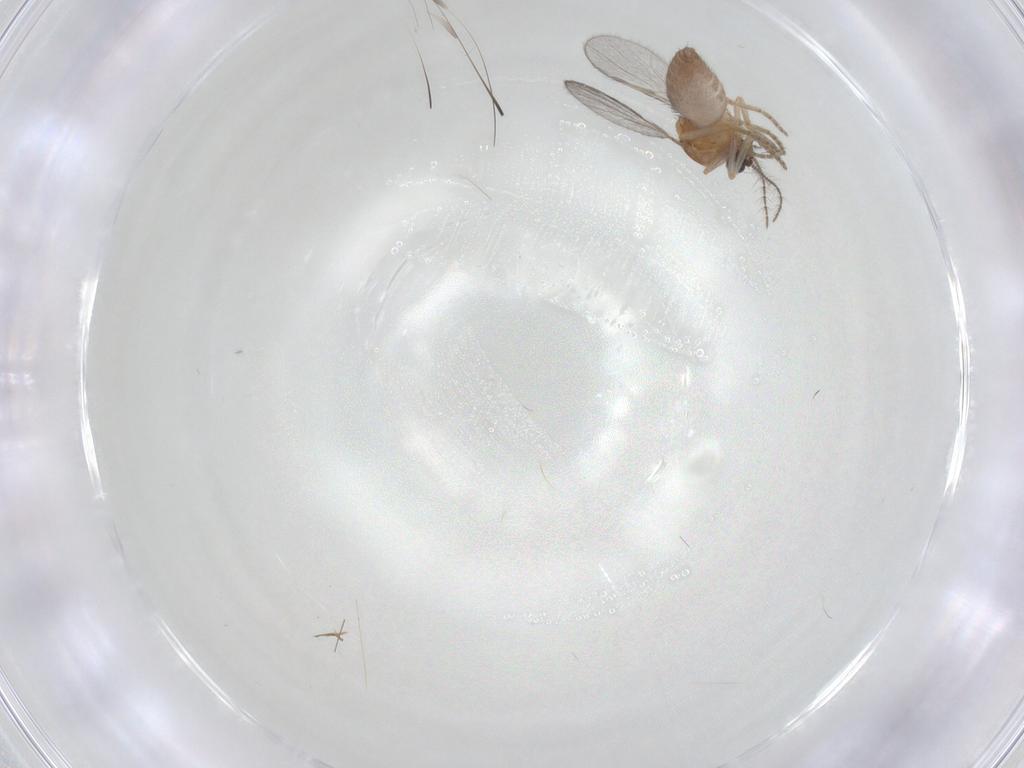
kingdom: Animalia
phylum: Arthropoda
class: Insecta
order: Diptera
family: Ceratopogonidae
